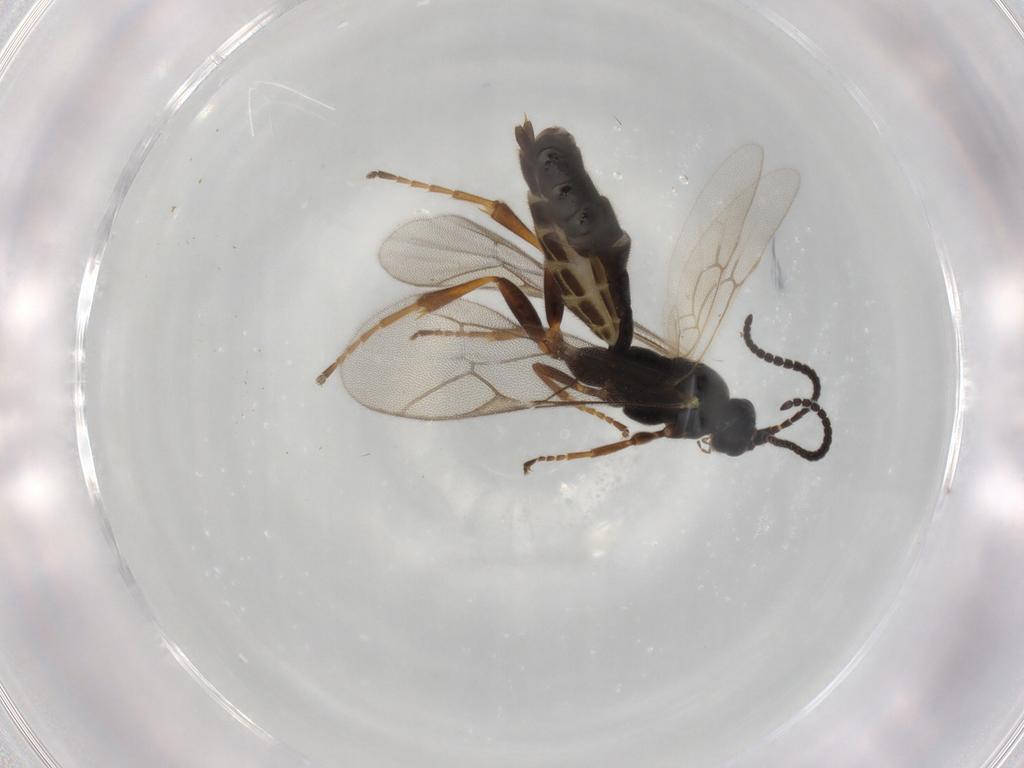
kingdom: Animalia
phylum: Arthropoda
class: Insecta
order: Hymenoptera
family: Ichneumonidae
